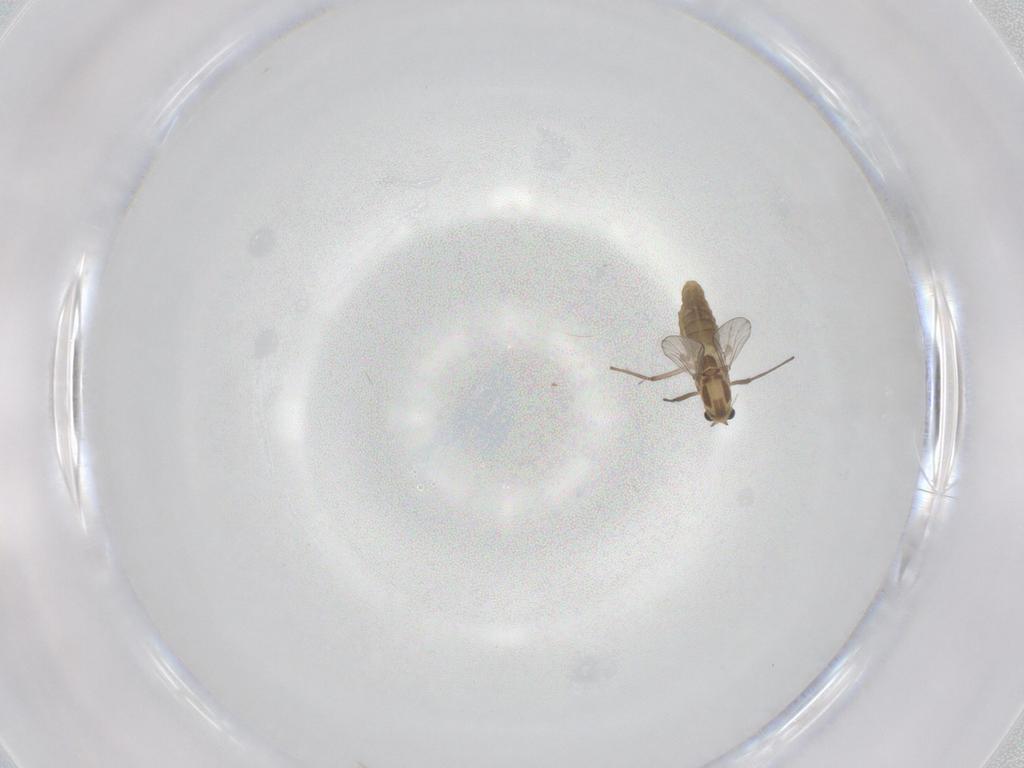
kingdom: Animalia
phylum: Arthropoda
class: Insecta
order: Diptera
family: Chironomidae
